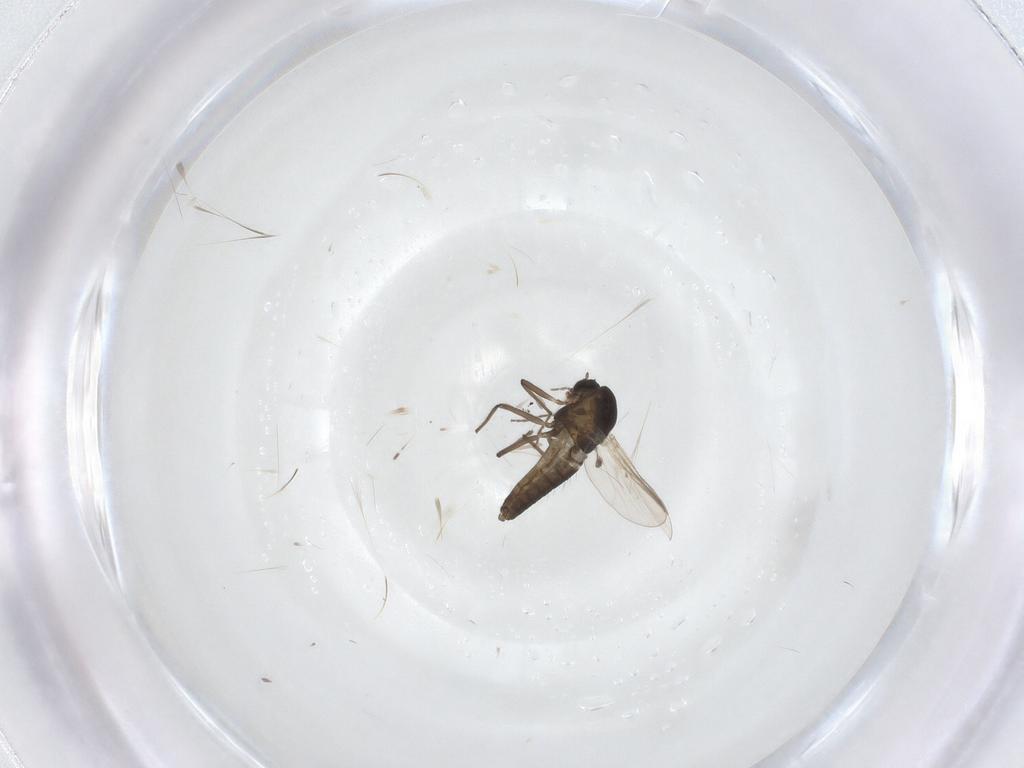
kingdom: Animalia
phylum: Arthropoda
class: Insecta
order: Diptera
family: Chironomidae
